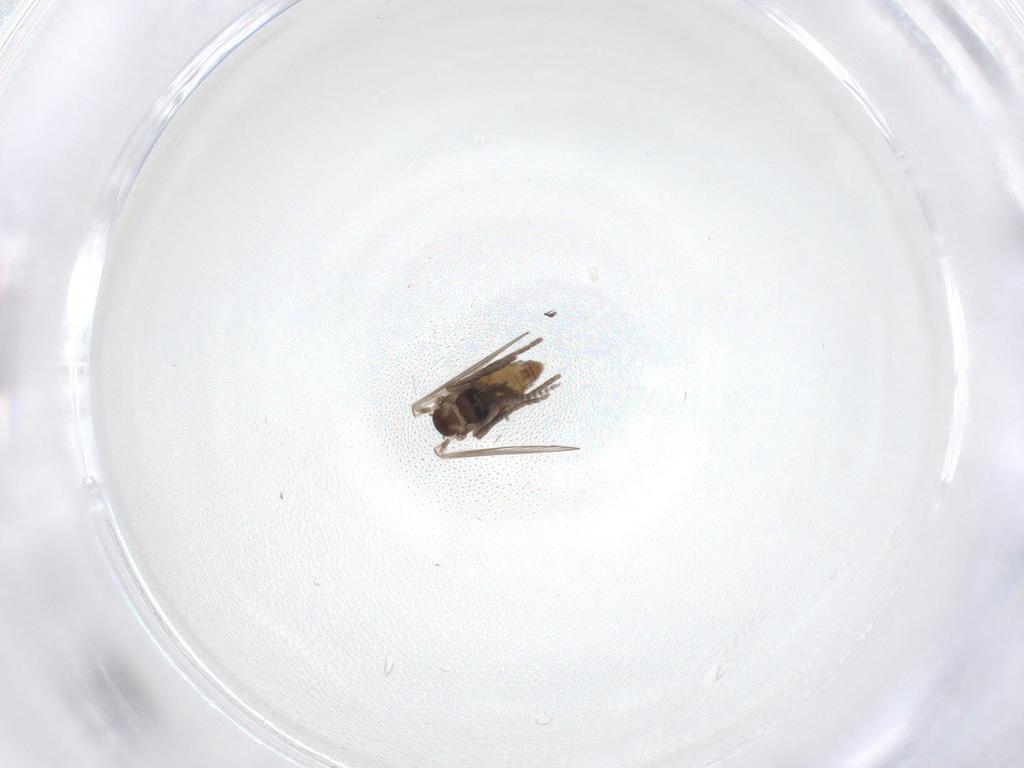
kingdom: Animalia
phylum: Arthropoda
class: Insecta
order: Diptera
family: Psychodidae
